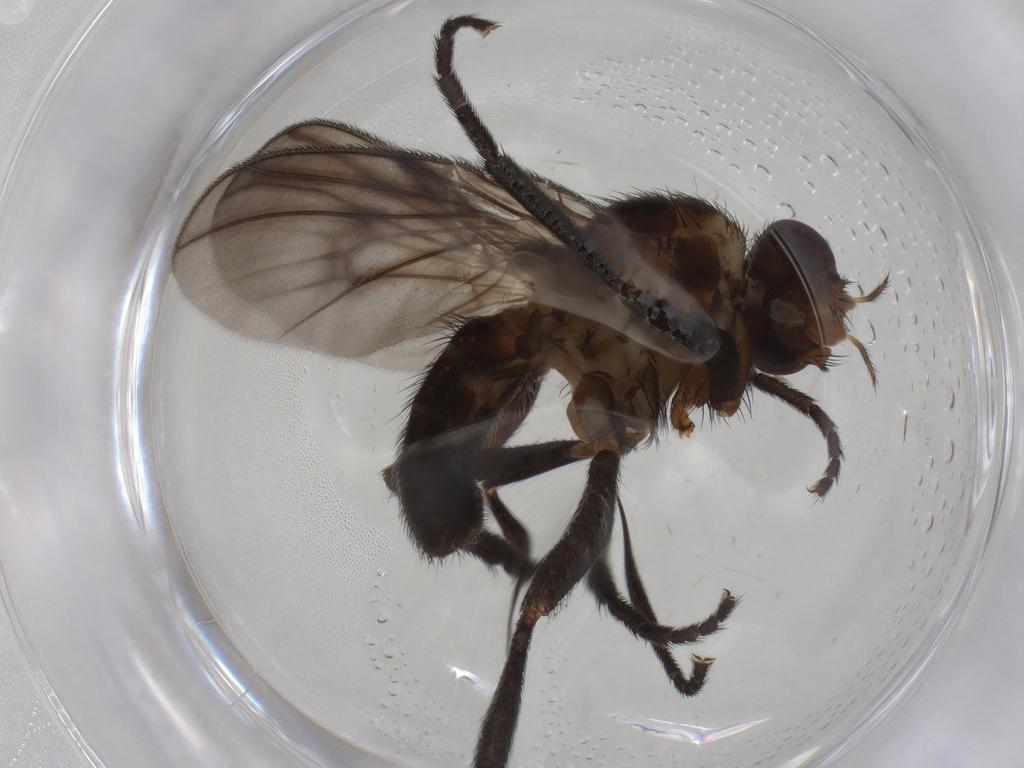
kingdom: Animalia
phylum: Arthropoda
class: Insecta
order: Diptera
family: Calliphoridae
